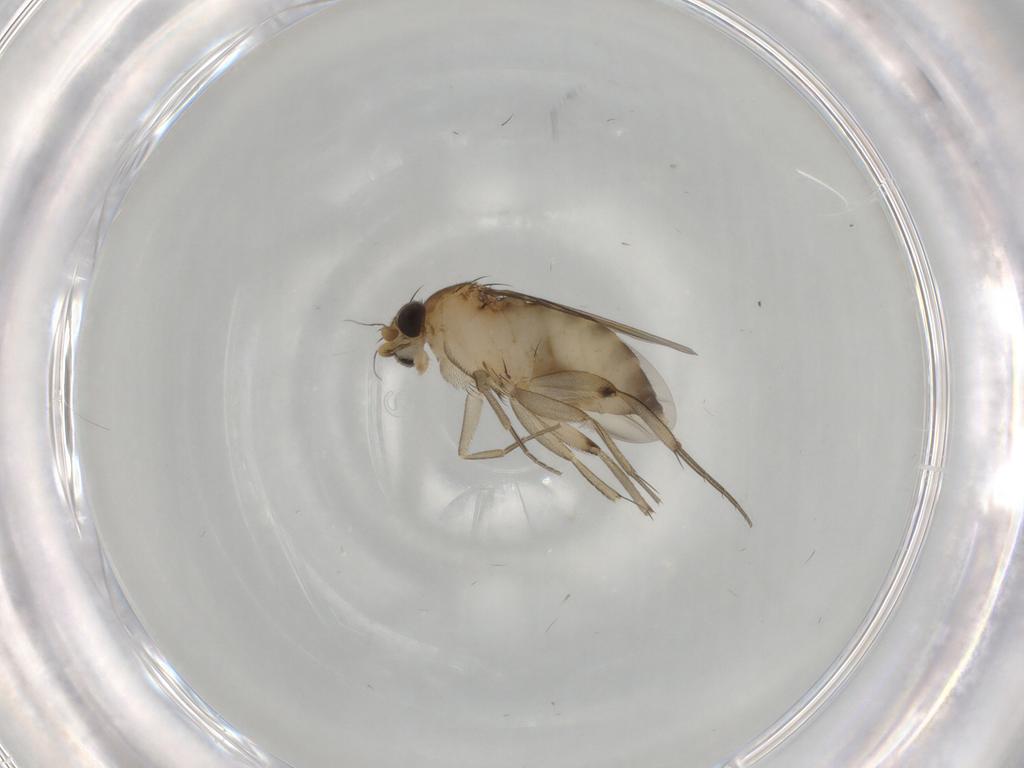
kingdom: Animalia
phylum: Arthropoda
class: Insecta
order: Diptera
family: Phoridae
